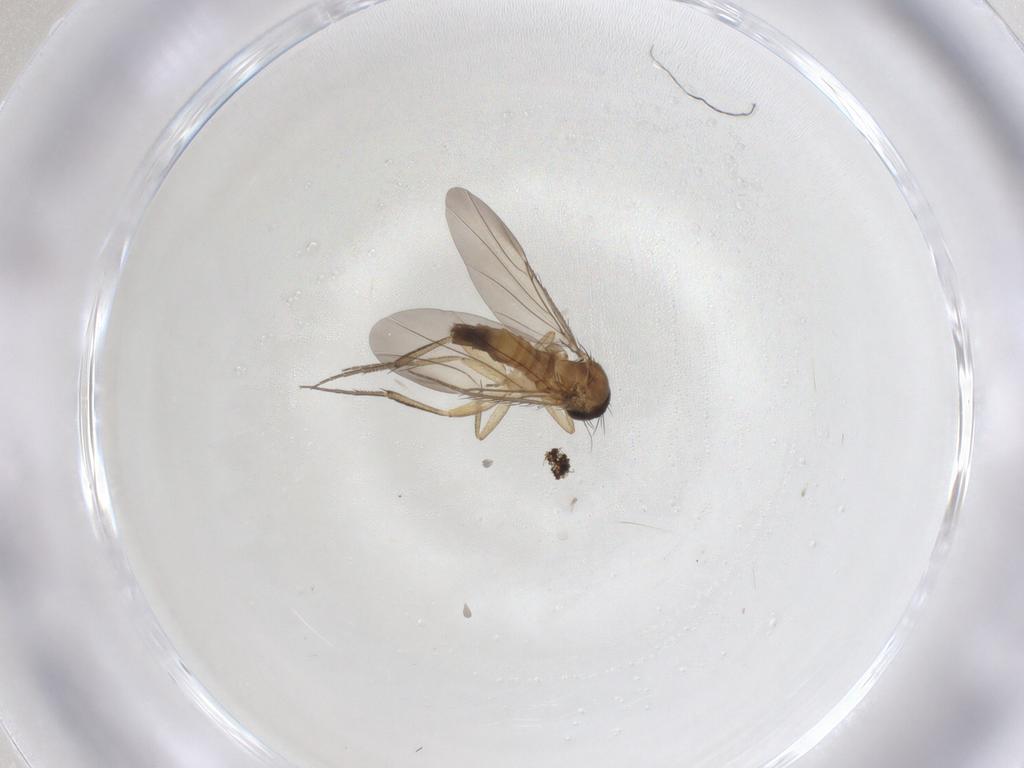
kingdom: Animalia
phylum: Arthropoda
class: Insecta
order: Diptera
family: Phoridae
